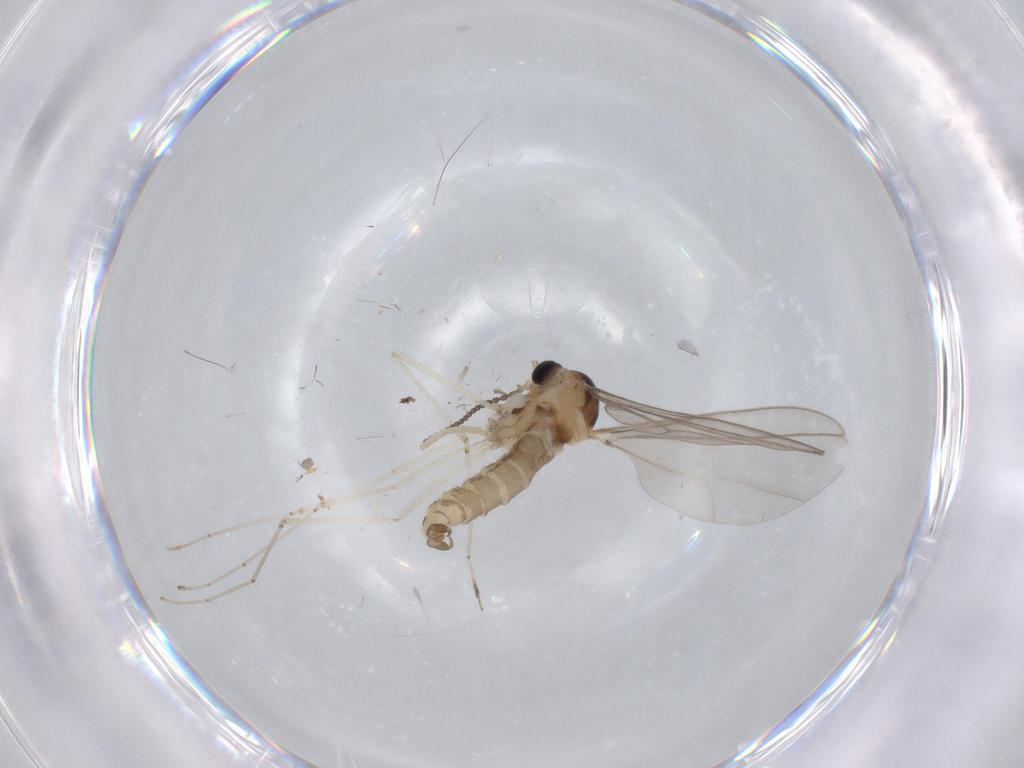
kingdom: Animalia
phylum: Arthropoda
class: Insecta
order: Diptera
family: Cecidomyiidae
